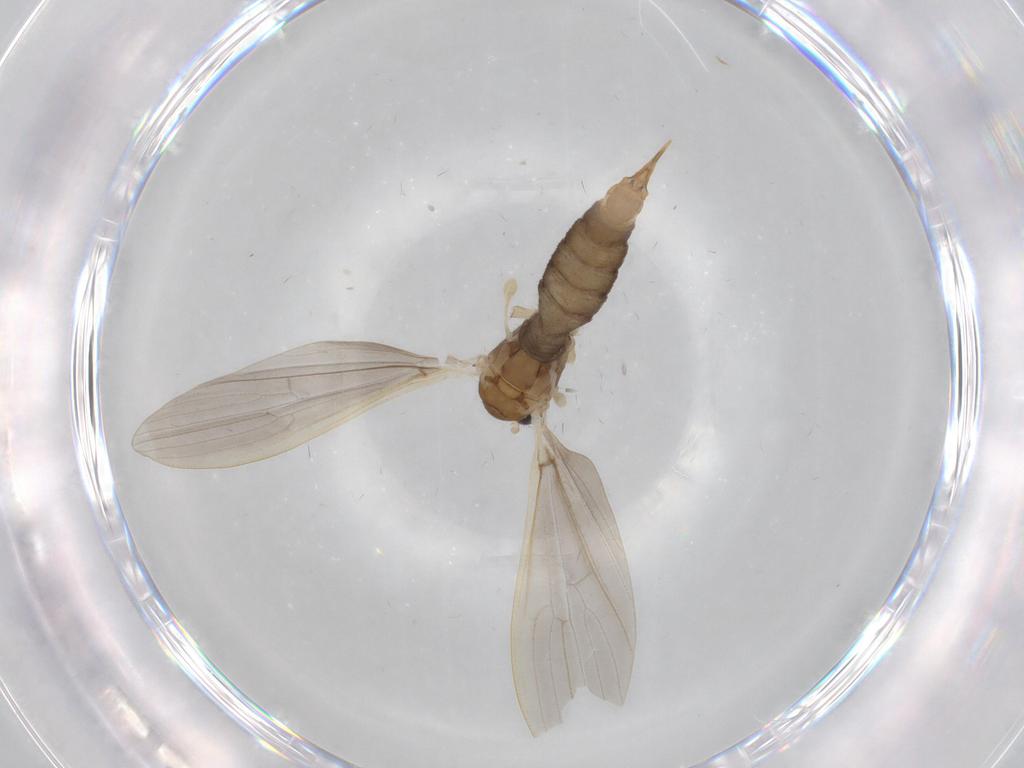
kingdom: Animalia
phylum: Arthropoda
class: Insecta
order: Diptera
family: Limoniidae
